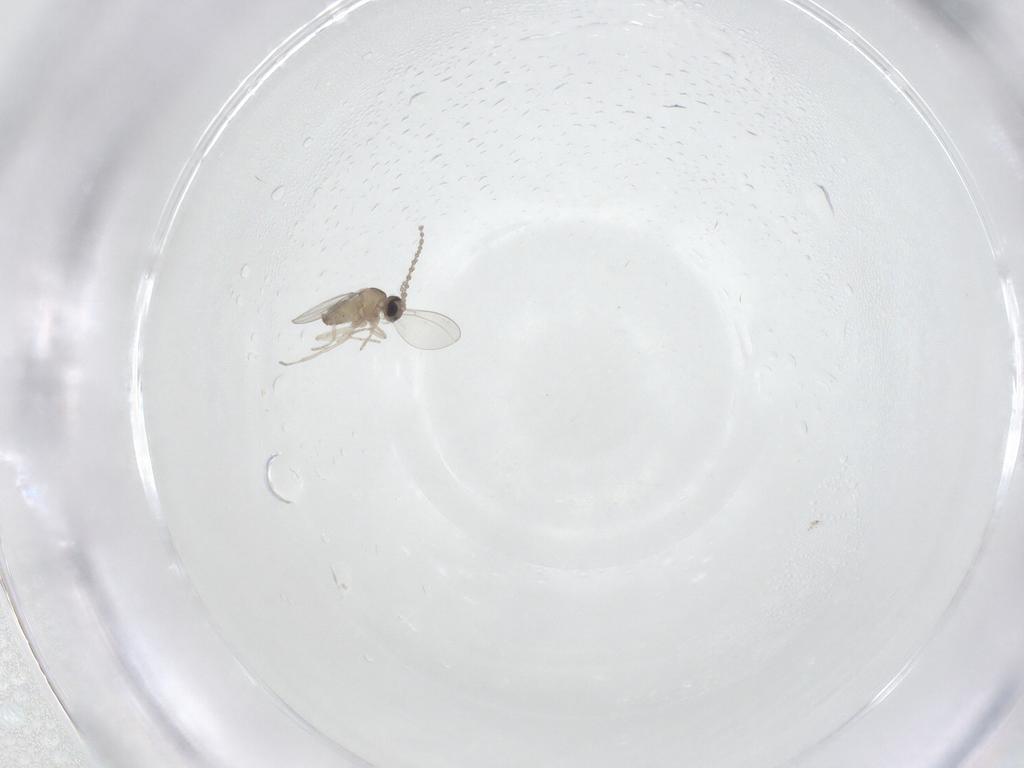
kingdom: Animalia
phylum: Arthropoda
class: Insecta
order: Diptera
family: Cecidomyiidae
